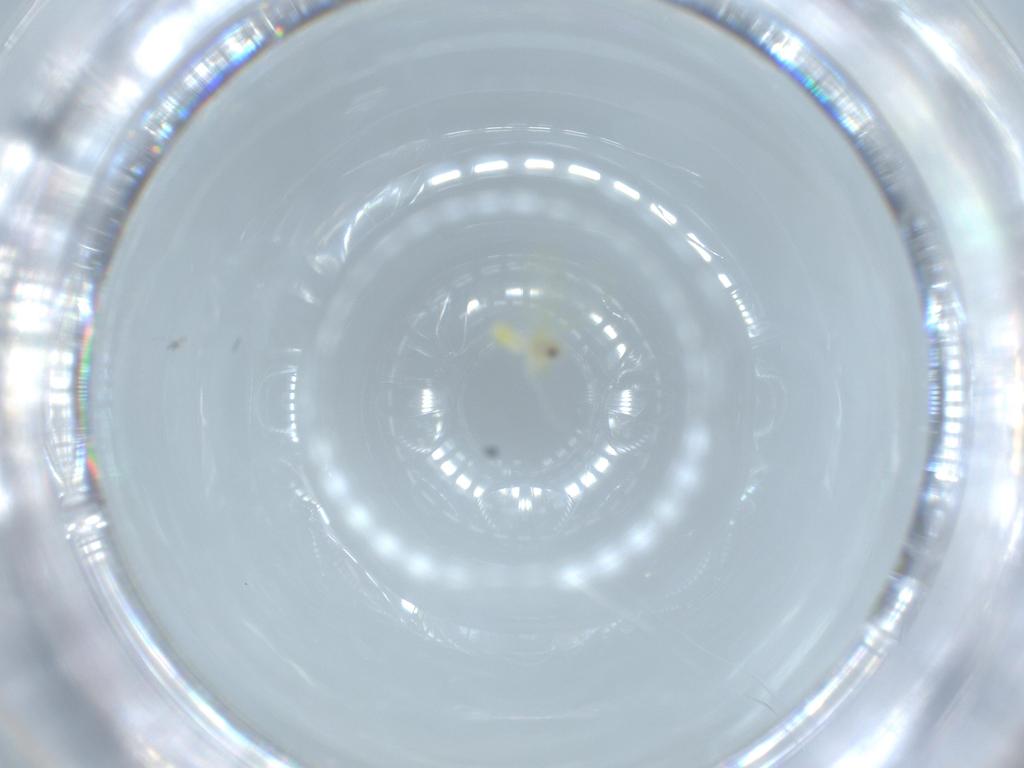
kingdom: Animalia
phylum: Arthropoda
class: Insecta
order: Hemiptera
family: Aleyrodidae
